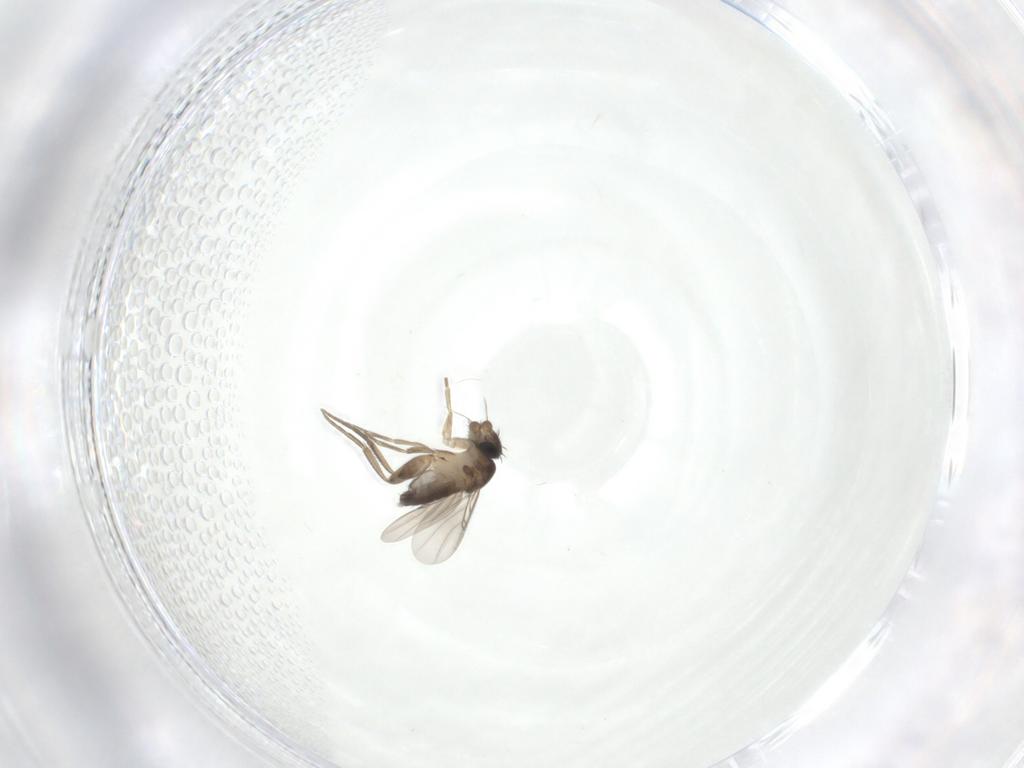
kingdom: Animalia
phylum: Arthropoda
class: Insecta
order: Diptera
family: Phoridae
